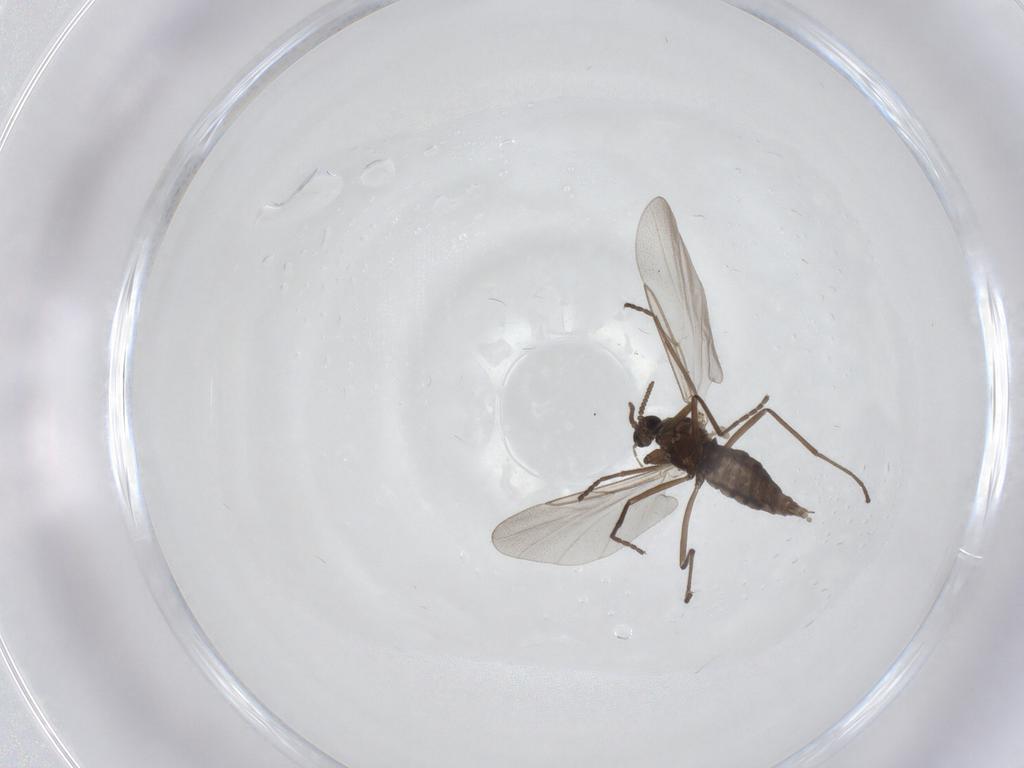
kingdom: Animalia
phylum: Arthropoda
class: Insecta
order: Diptera
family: Cecidomyiidae
